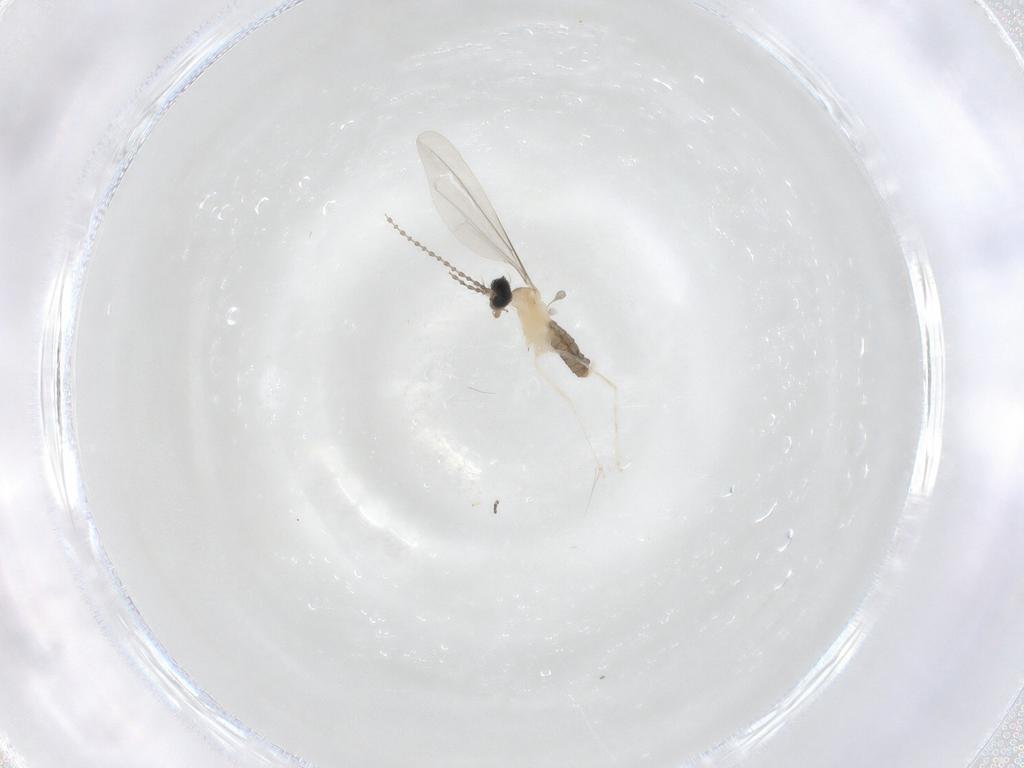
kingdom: Animalia
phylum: Arthropoda
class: Insecta
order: Diptera
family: Cecidomyiidae
